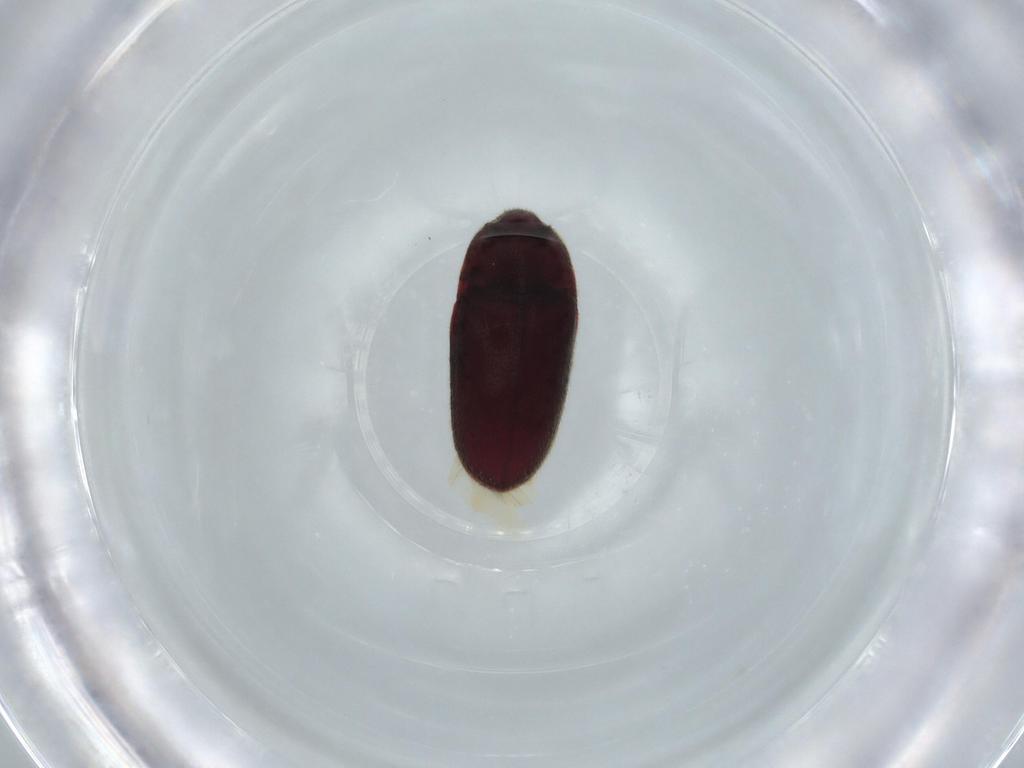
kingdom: Animalia
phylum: Arthropoda
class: Insecta
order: Coleoptera
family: Throscidae
